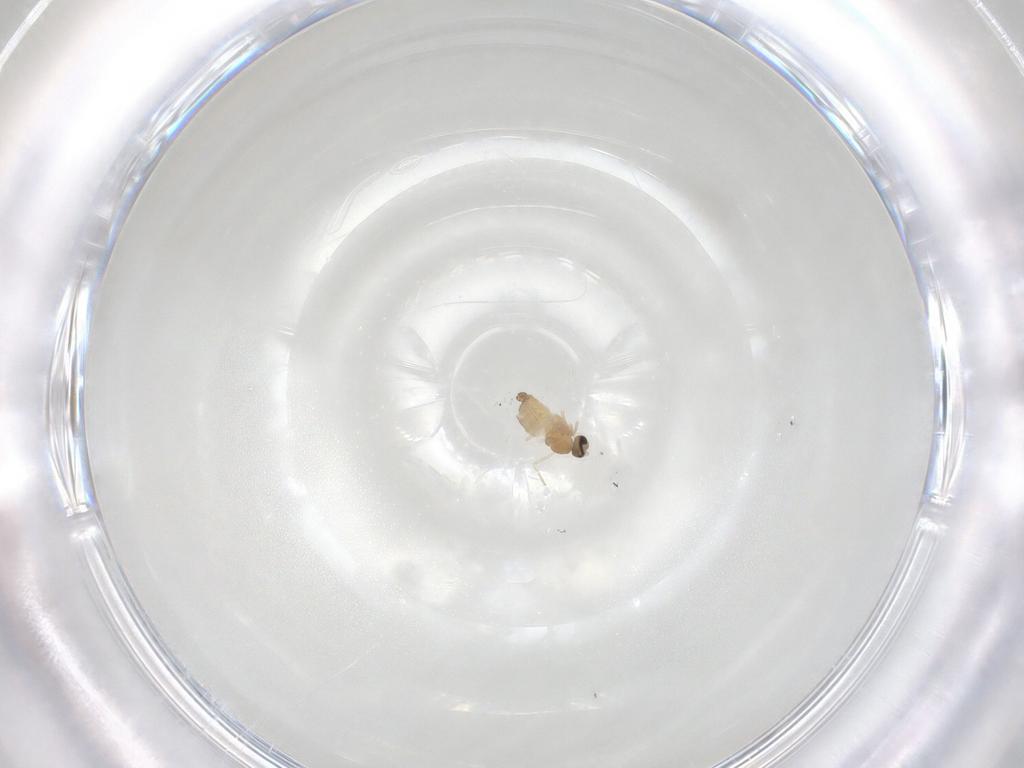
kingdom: Animalia
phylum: Arthropoda
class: Insecta
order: Diptera
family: Cecidomyiidae
